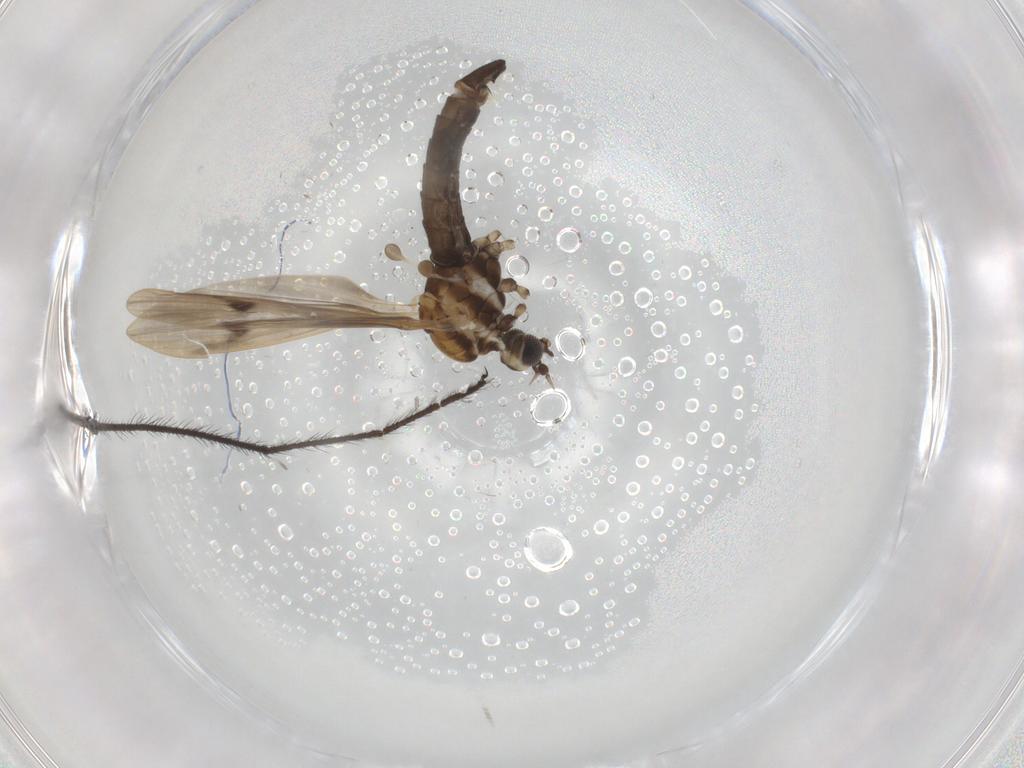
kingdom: Animalia
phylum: Arthropoda
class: Insecta
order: Diptera
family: Limoniidae
